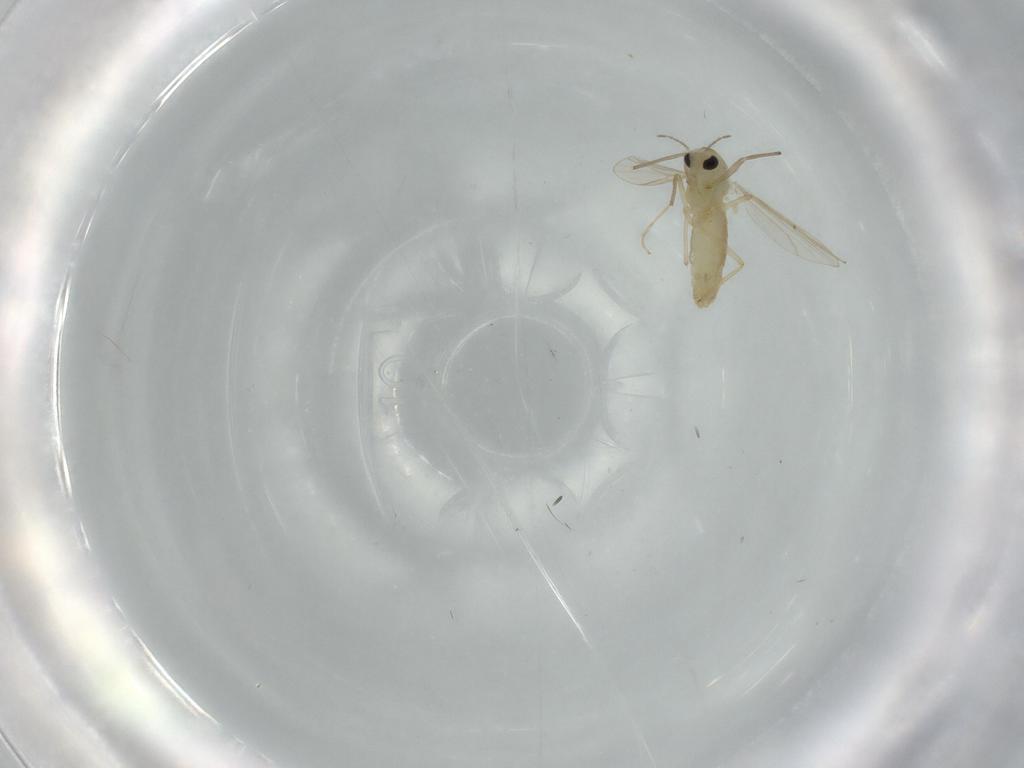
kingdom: Animalia
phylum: Arthropoda
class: Insecta
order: Diptera
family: Chironomidae
